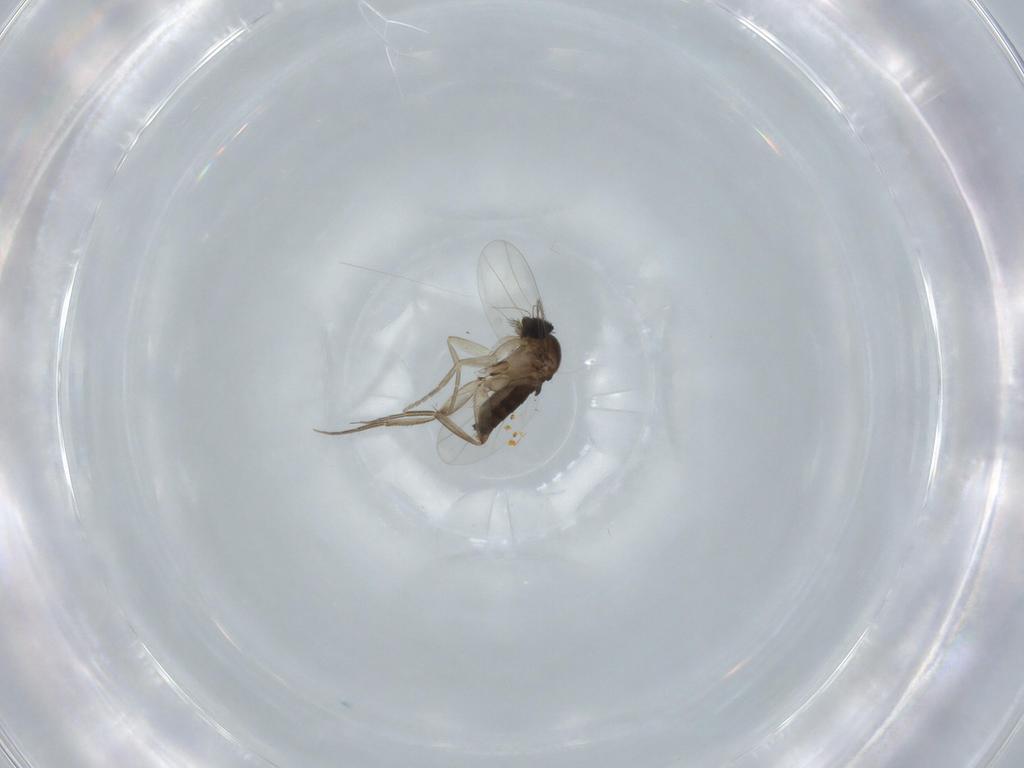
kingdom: Animalia
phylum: Arthropoda
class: Insecta
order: Diptera
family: Phoridae
